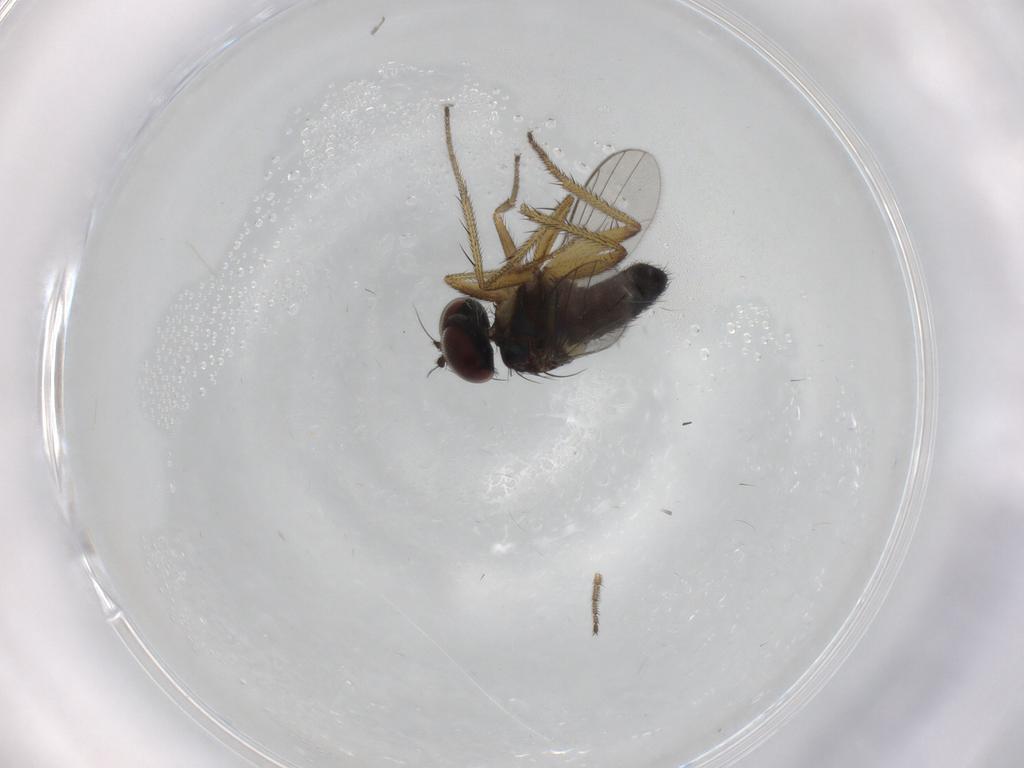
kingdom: Animalia
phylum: Arthropoda
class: Insecta
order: Diptera
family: Dolichopodidae
